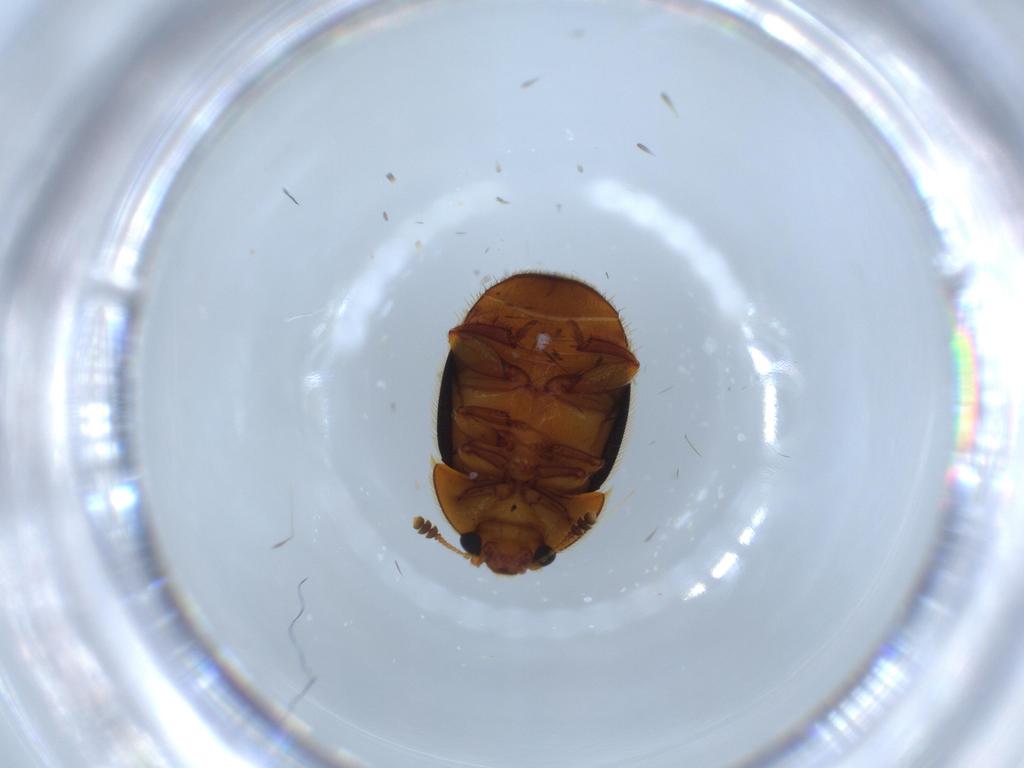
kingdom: Animalia
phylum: Arthropoda
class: Insecta
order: Coleoptera
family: Nitidulidae
